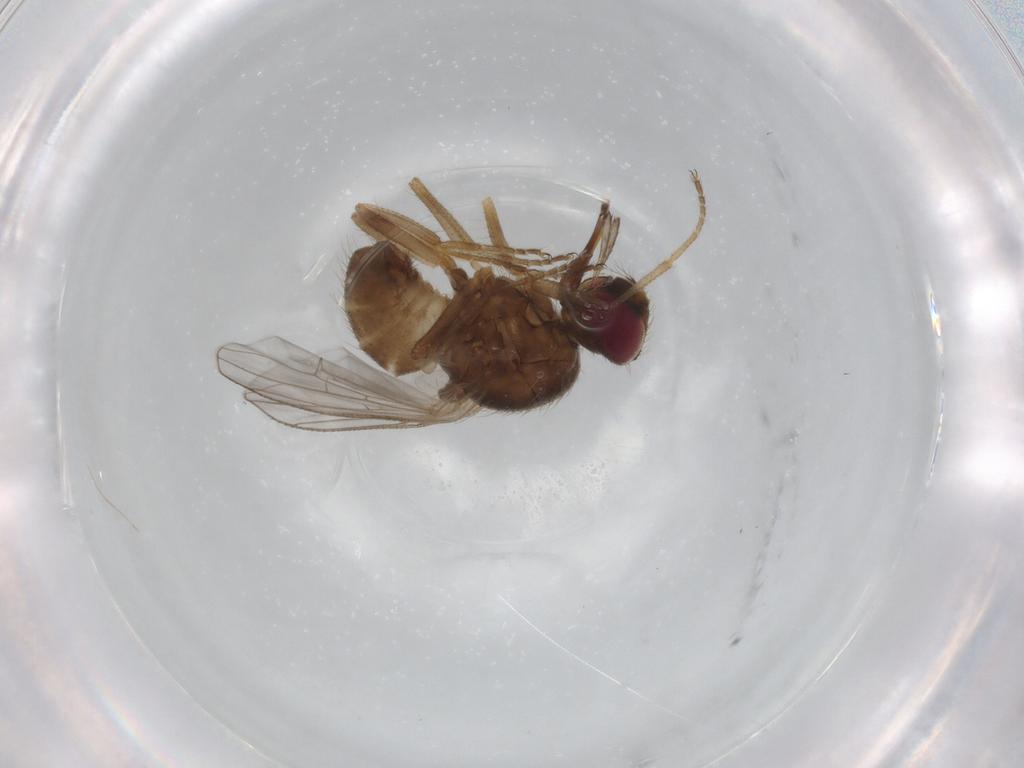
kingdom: Animalia
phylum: Arthropoda
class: Insecta
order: Diptera
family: Muscidae
